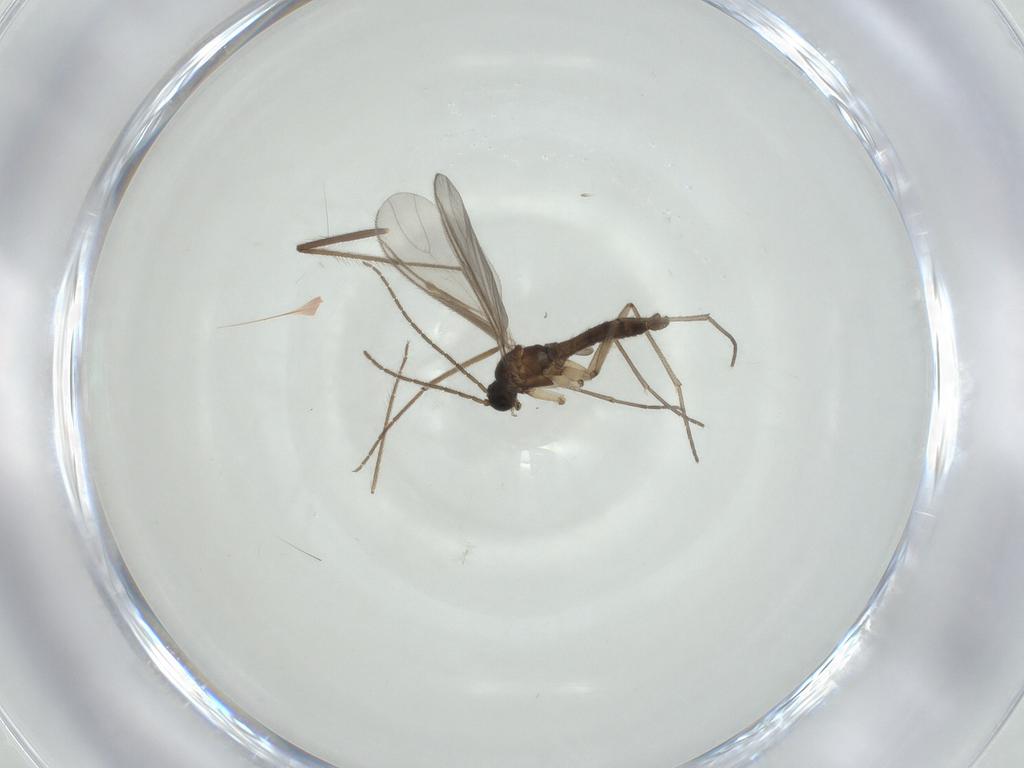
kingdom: Animalia
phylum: Arthropoda
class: Insecta
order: Diptera
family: Sciaridae
